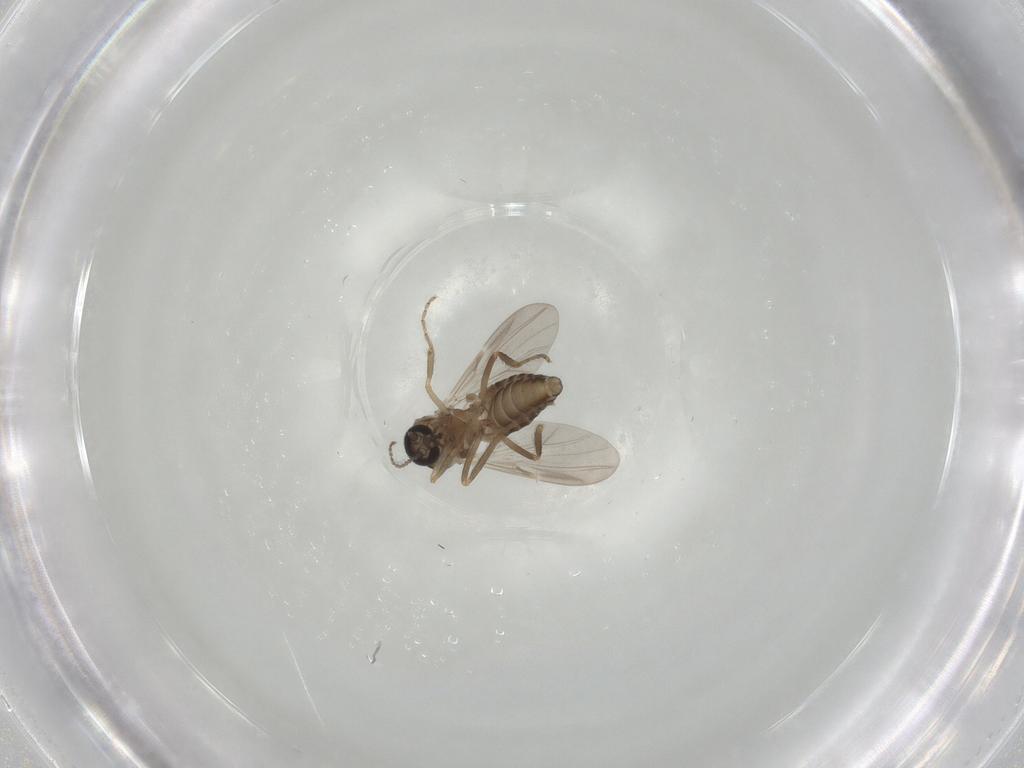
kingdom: Animalia
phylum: Arthropoda
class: Insecta
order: Diptera
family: Ceratopogonidae
